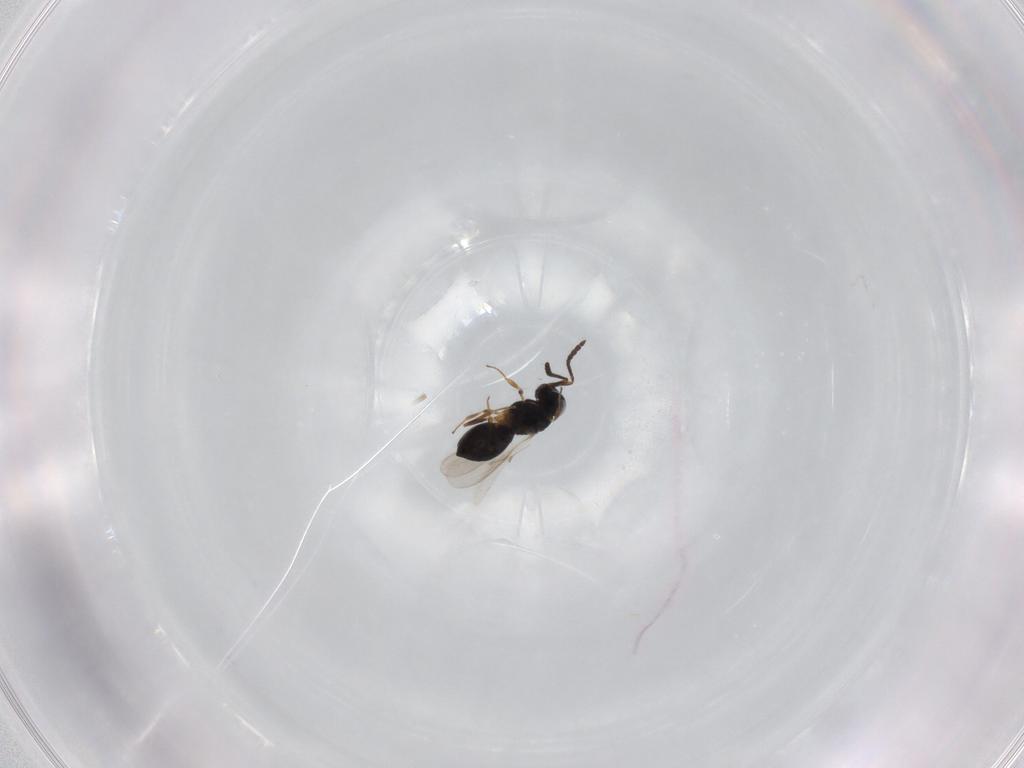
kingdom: Animalia
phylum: Arthropoda
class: Insecta
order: Hymenoptera
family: Scelionidae
